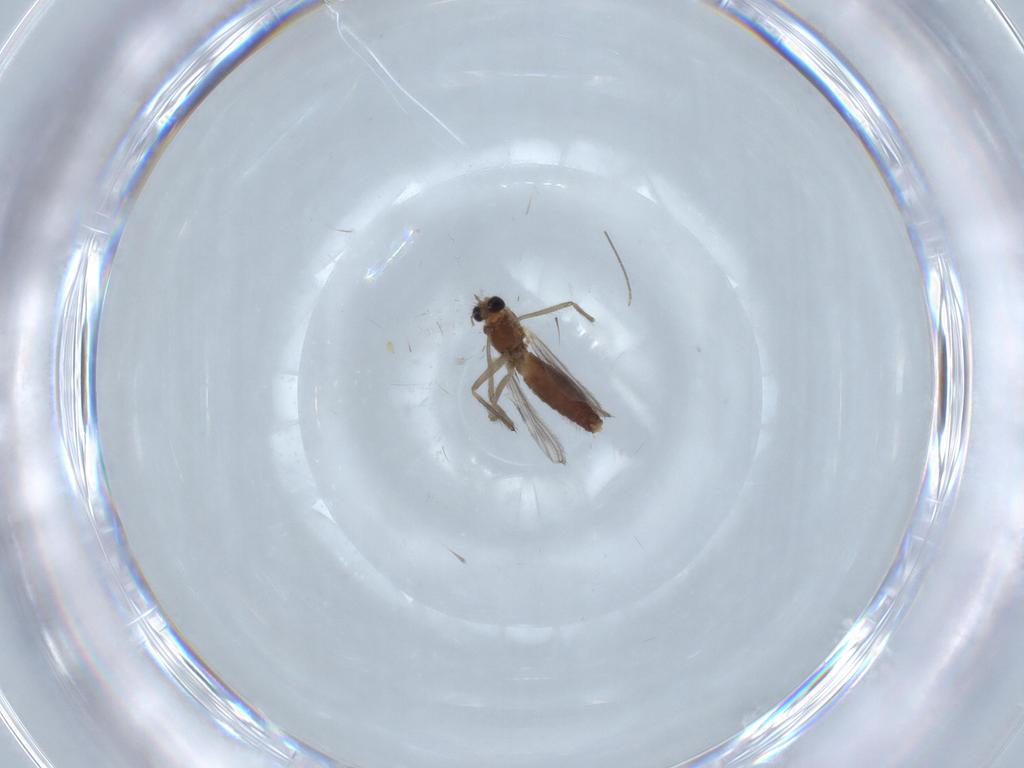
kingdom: Animalia
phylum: Arthropoda
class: Insecta
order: Diptera
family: Chironomidae
